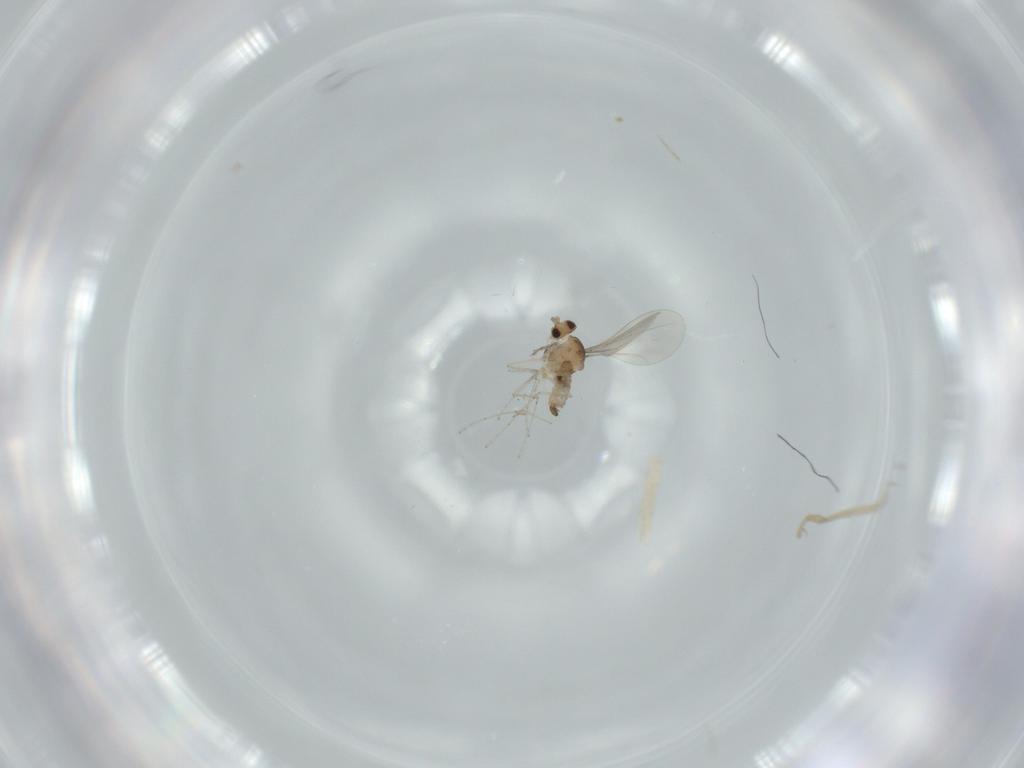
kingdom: Animalia
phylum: Arthropoda
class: Insecta
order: Diptera
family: Cecidomyiidae
